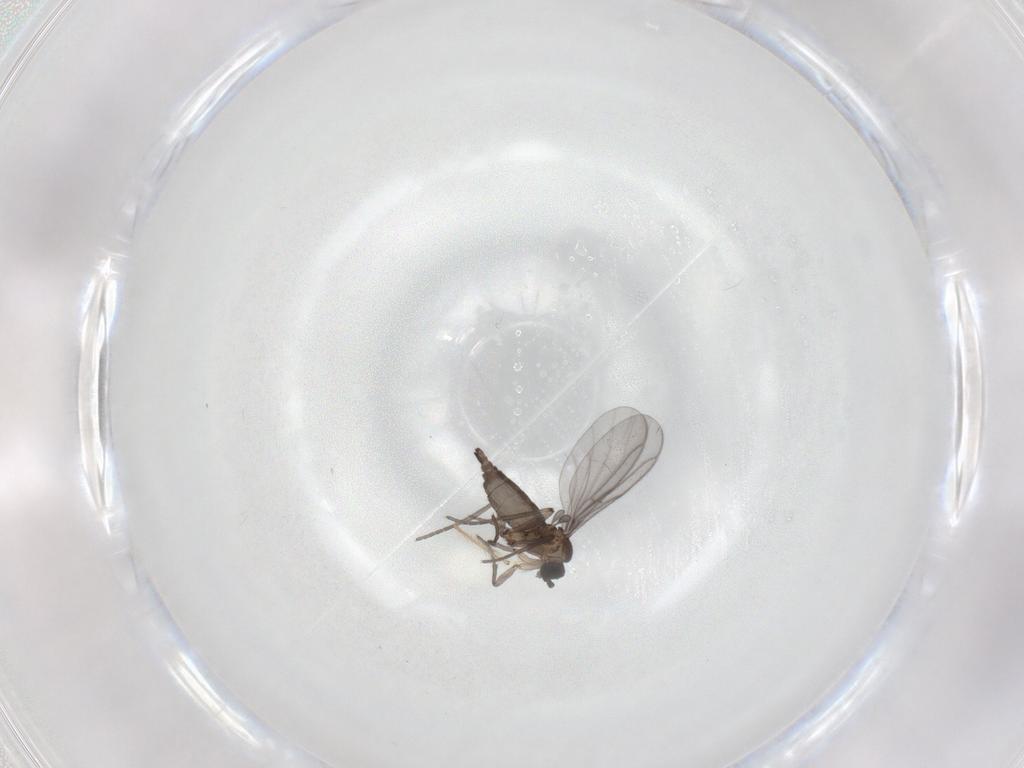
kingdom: Animalia
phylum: Arthropoda
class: Insecta
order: Diptera
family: Chironomidae
